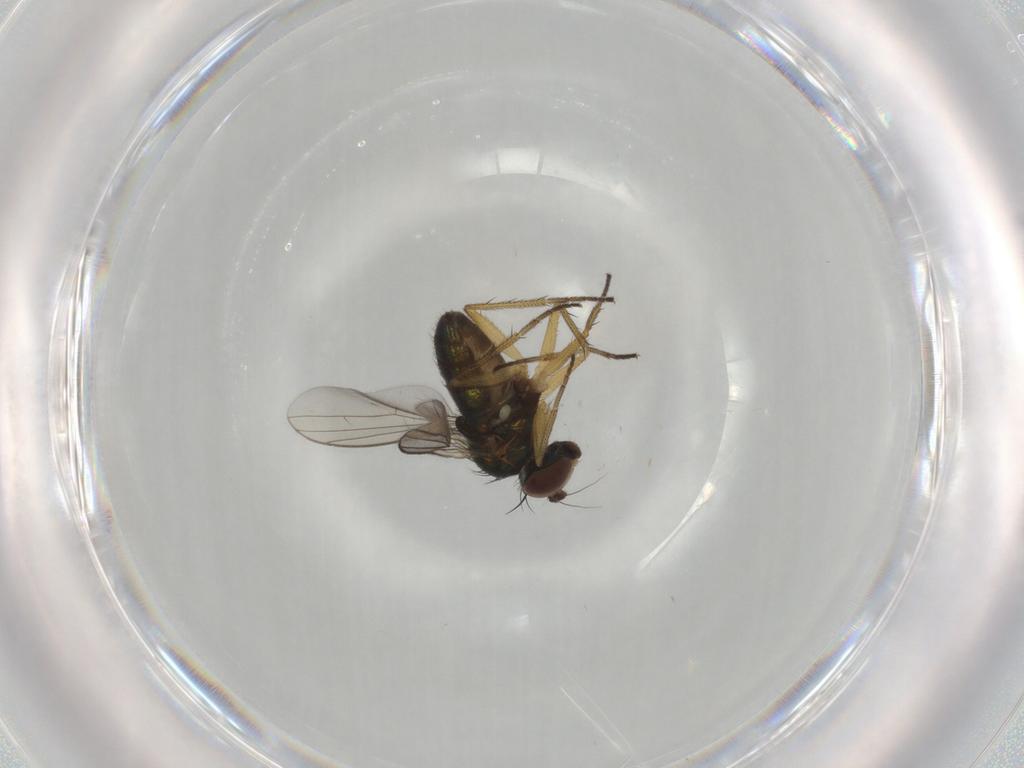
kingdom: Animalia
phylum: Arthropoda
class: Insecta
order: Diptera
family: Dolichopodidae
